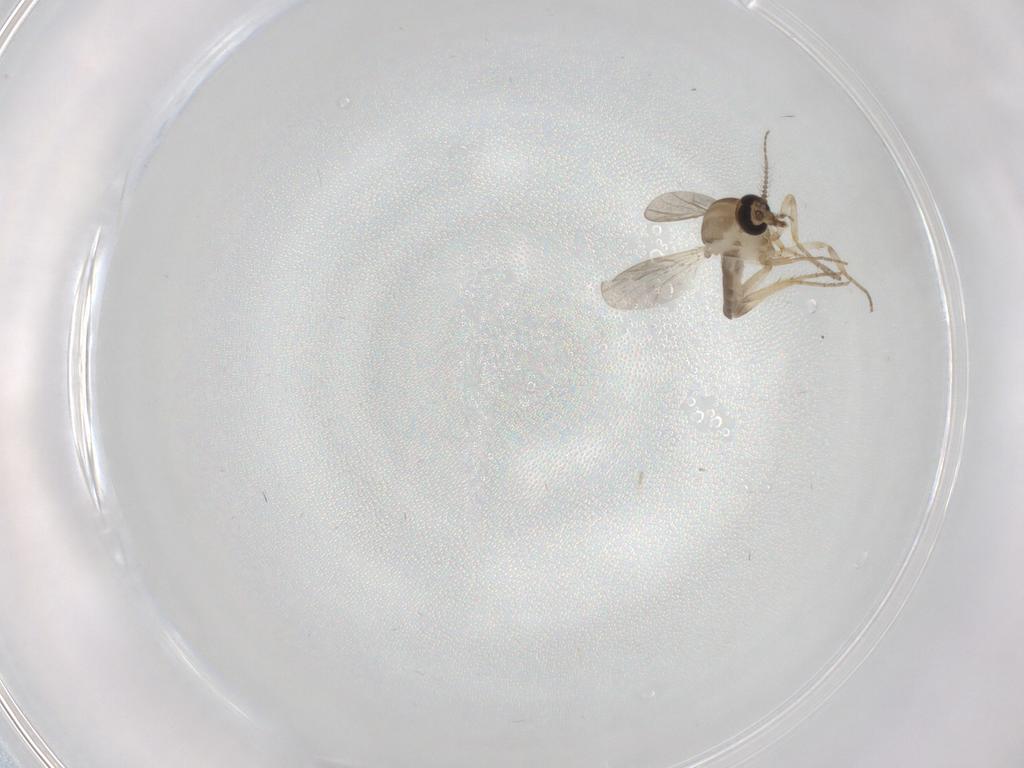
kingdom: Animalia
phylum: Arthropoda
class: Insecta
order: Diptera
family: Ceratopogonidae
